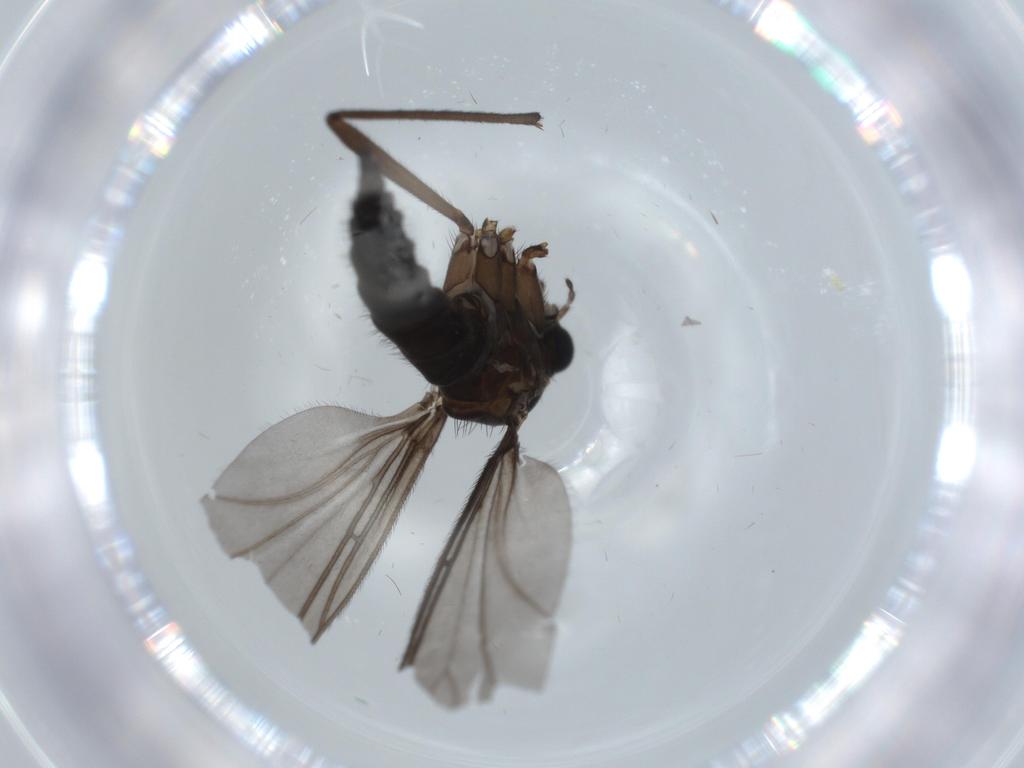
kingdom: Animalia
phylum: Arthropoda
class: Insecta
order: Diptera
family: Sciaridae
